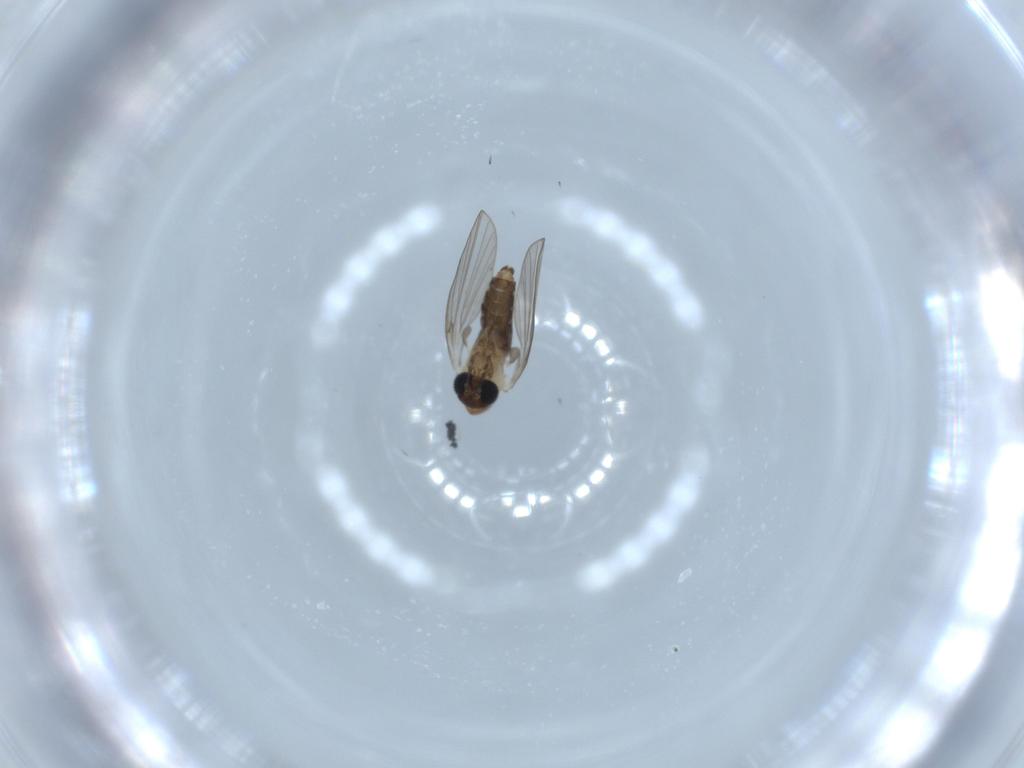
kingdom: Animalia
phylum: Arthropoda
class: Insecta
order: Diptera
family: Psychodidae
